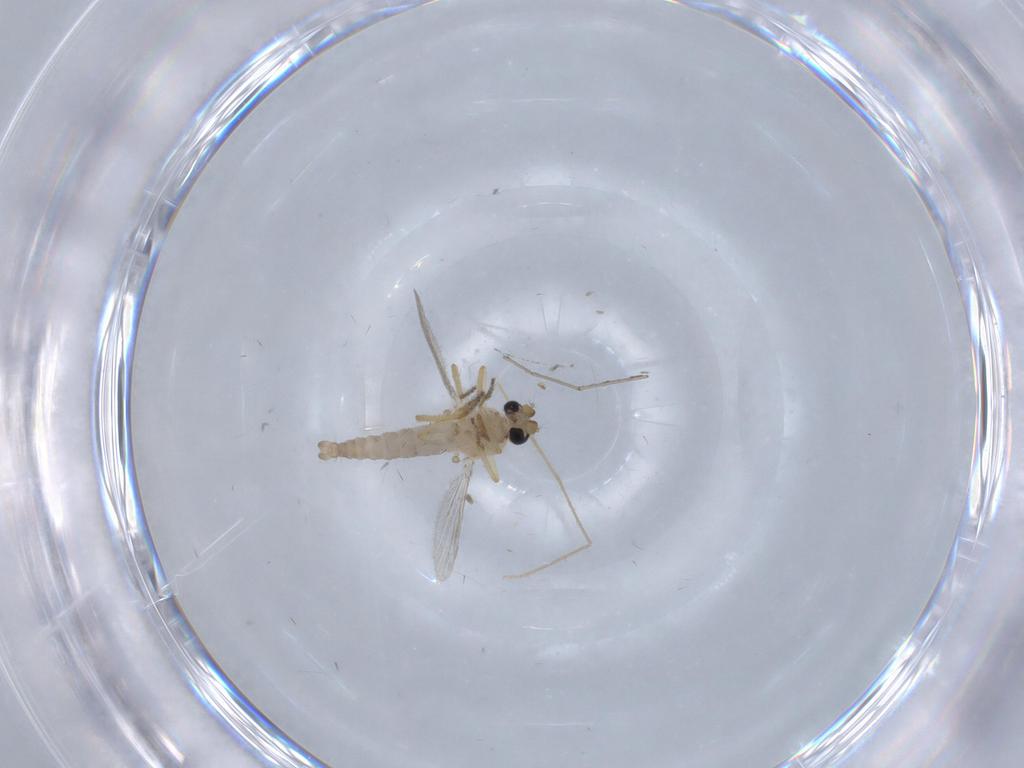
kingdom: Animalia
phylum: Arthropoda
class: Insecta
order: Diptera
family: Ceratopogonidae
